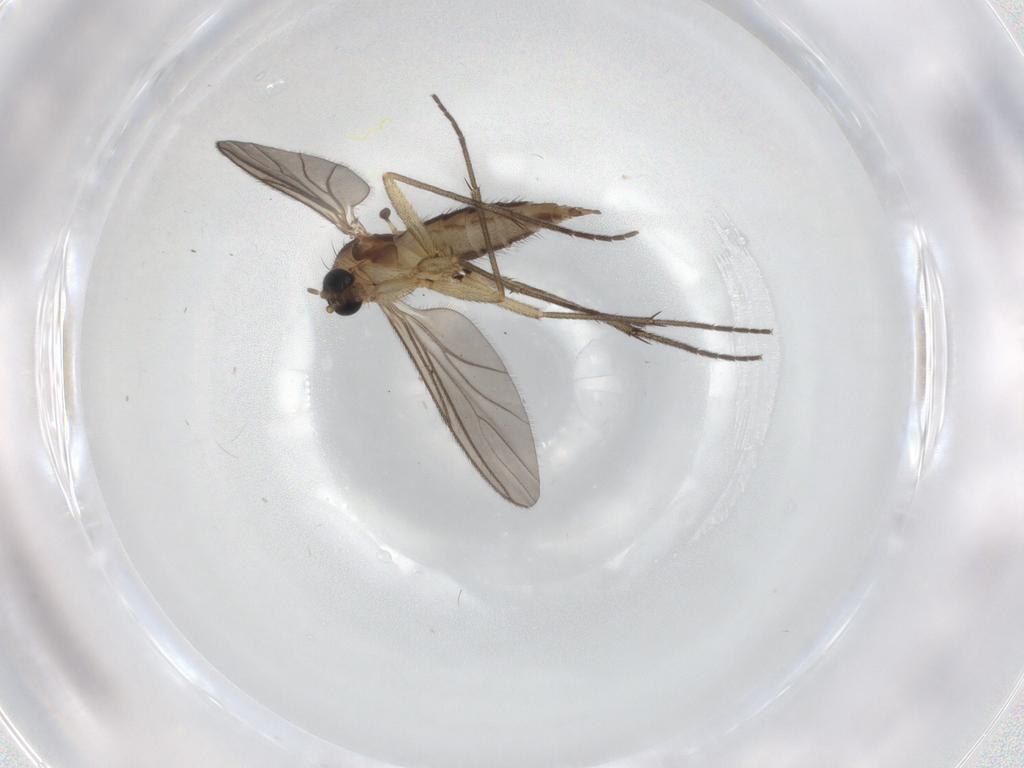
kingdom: Animalia
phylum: Arthropoda
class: Insecta
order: Diptera
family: Sciaridae
